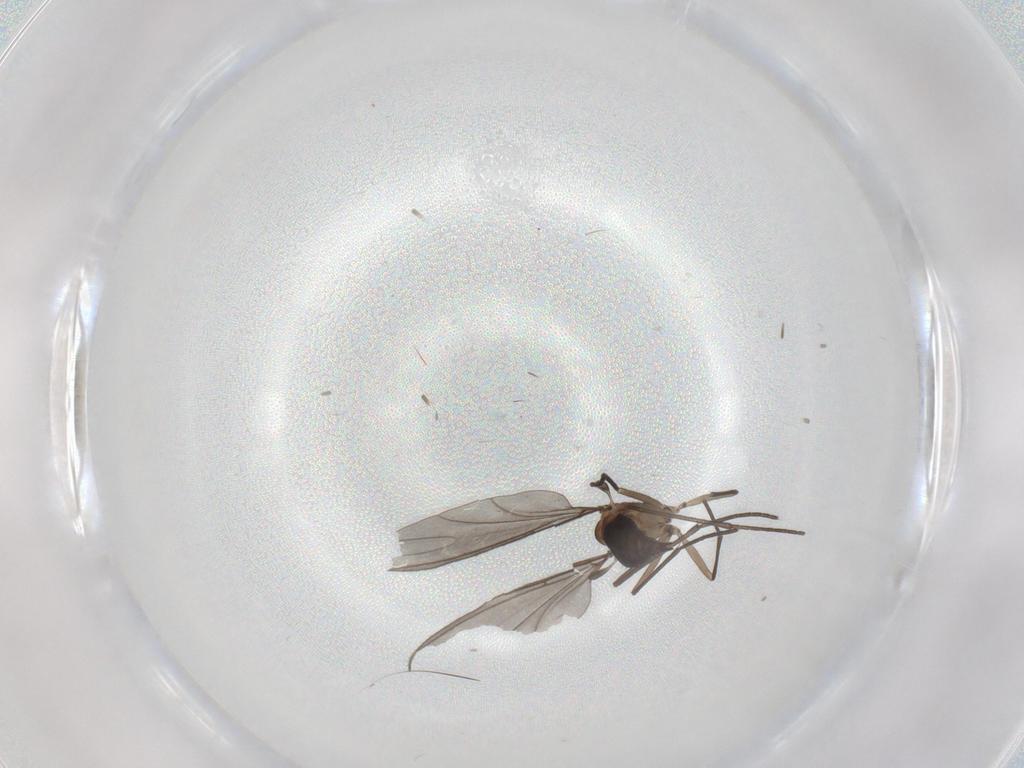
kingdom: Animalia
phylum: Arthropoda
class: Insecta
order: Diptera
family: Sciaridae
